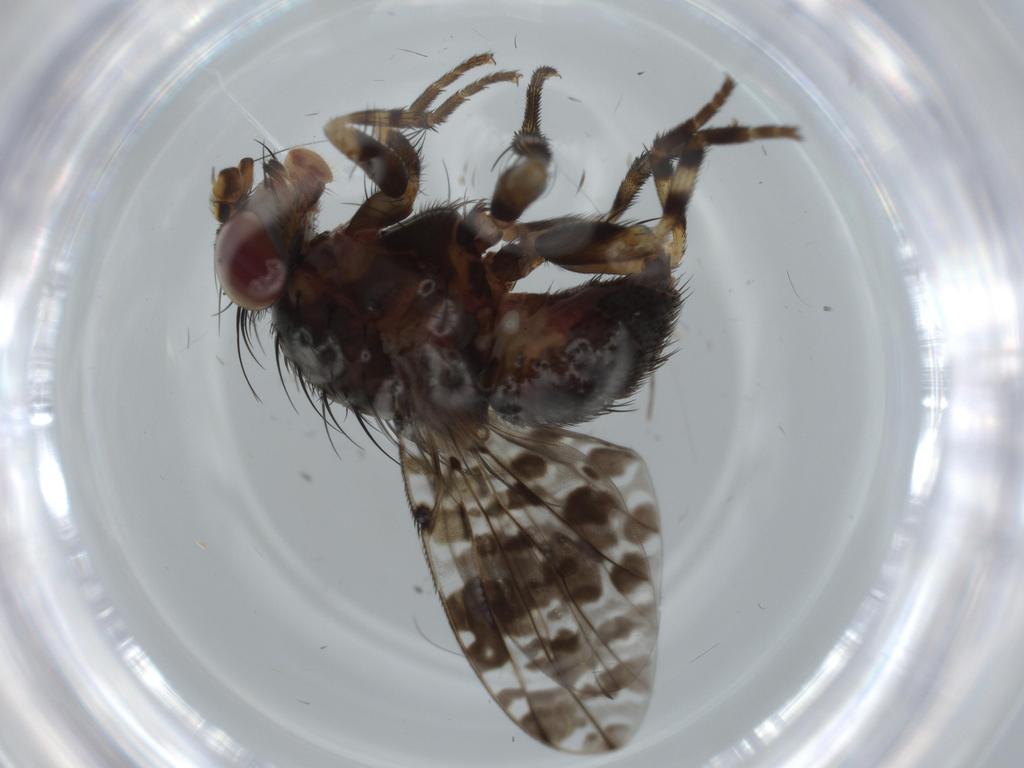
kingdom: Animalia
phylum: Arthropoda
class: Insecta
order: Diptera
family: Odiniidae
